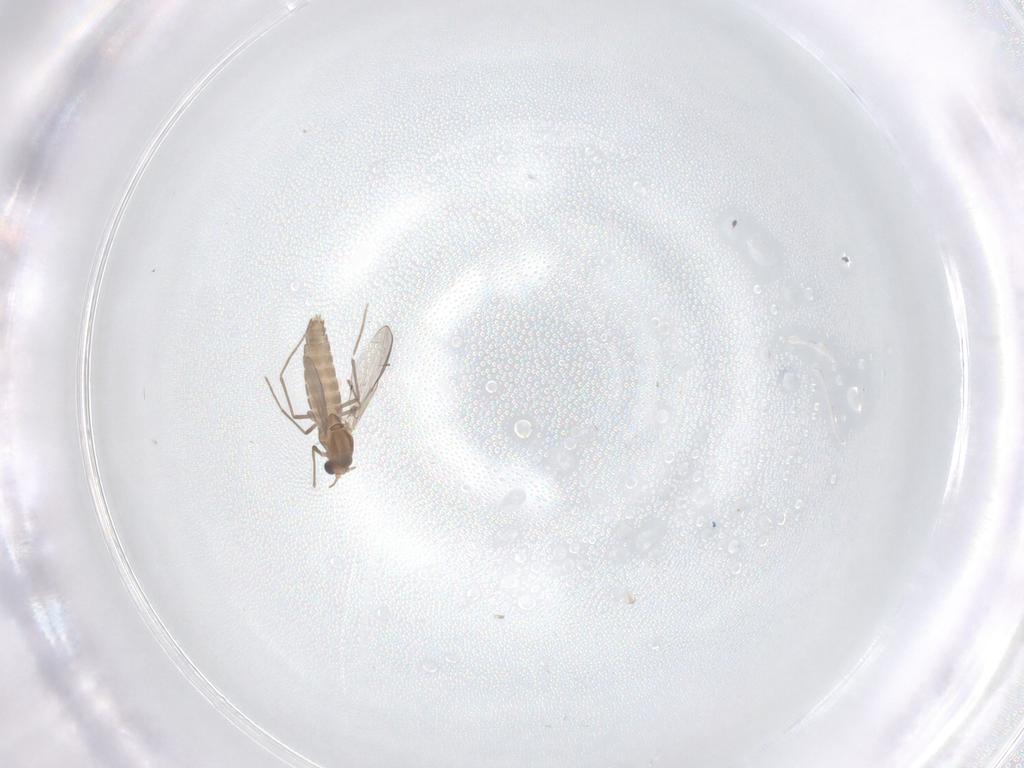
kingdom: Animalia
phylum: Arthropoda
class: Insecta
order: Diptera
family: Chironomidae
